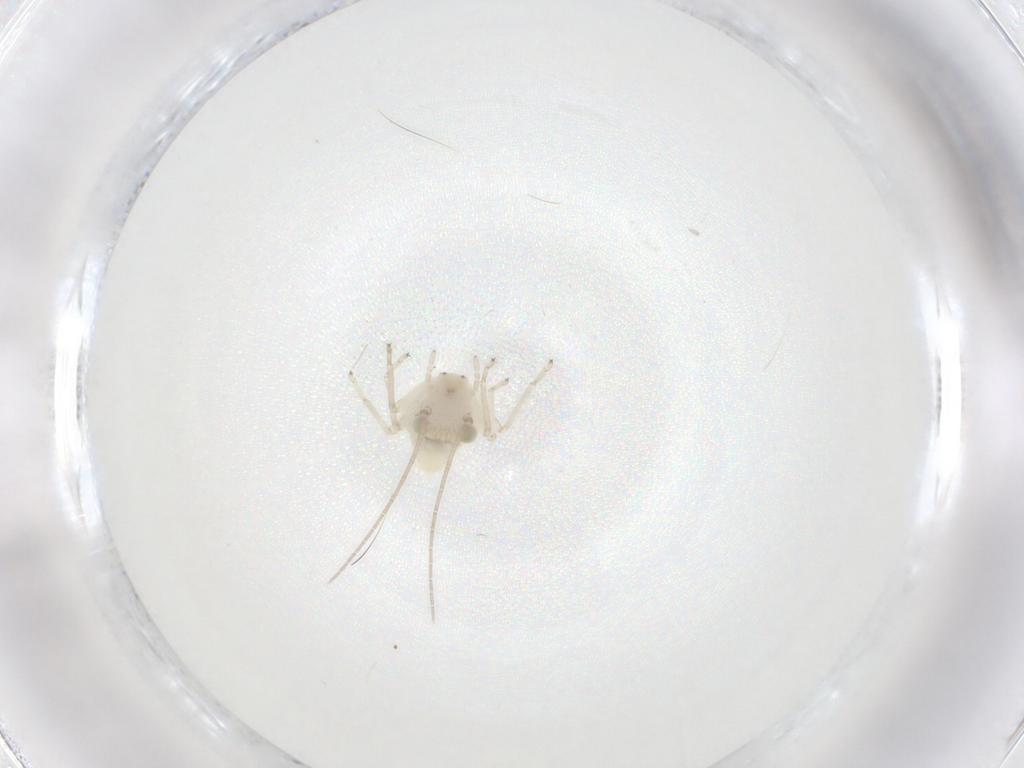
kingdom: Animalia
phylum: Arthropoda
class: Insecta
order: Psocodea
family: Caeciliusidae
